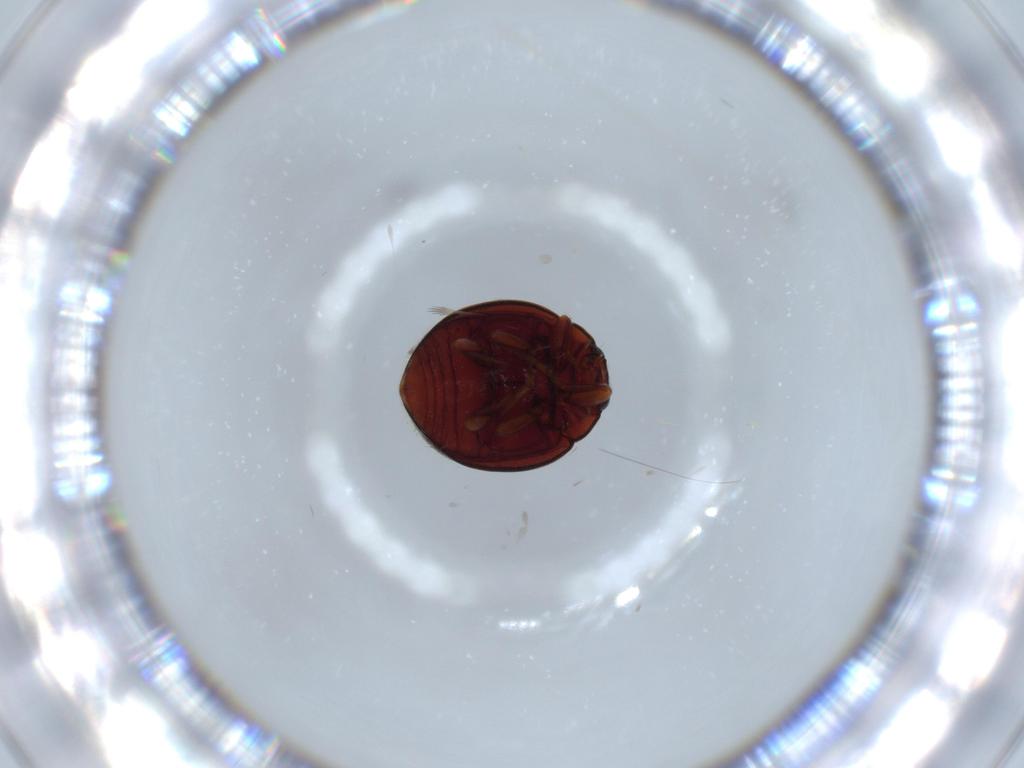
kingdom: Animalia
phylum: Arthropoda
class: Insecta
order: Coleoptera
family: Coccinellidae
